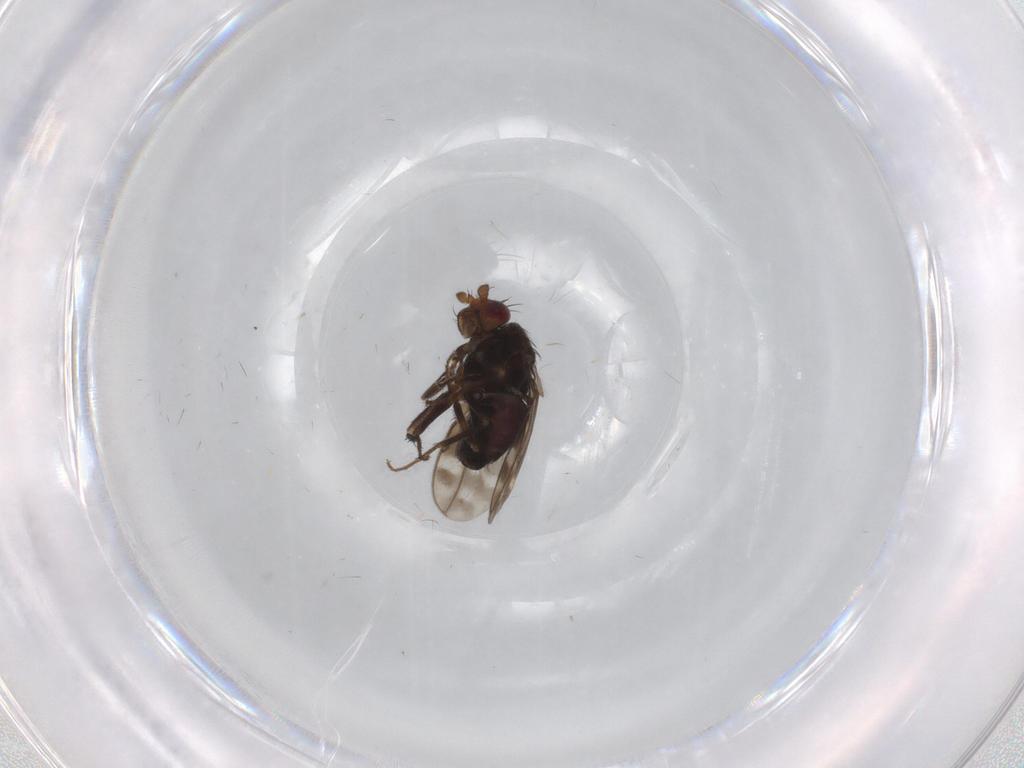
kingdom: Animalia
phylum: Arthropoda
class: Insecta
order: Diptera
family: Sphaeroceridae
